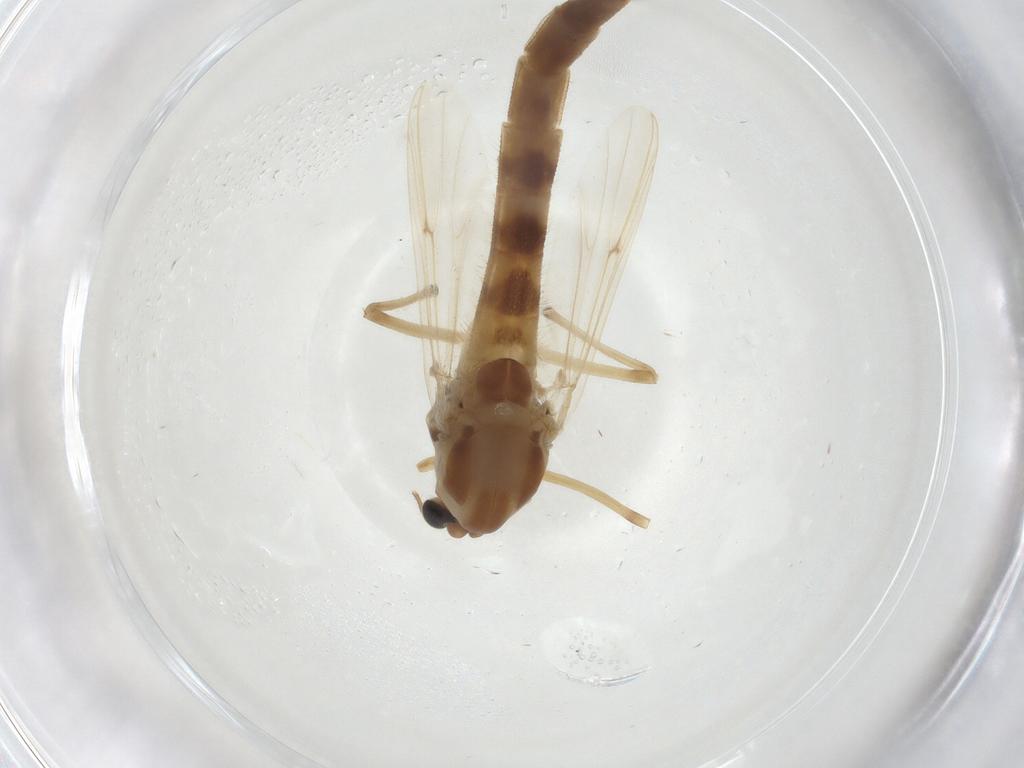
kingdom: Animalia
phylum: Arthropoda
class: Insecta
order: Diptera
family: Chironomidae
